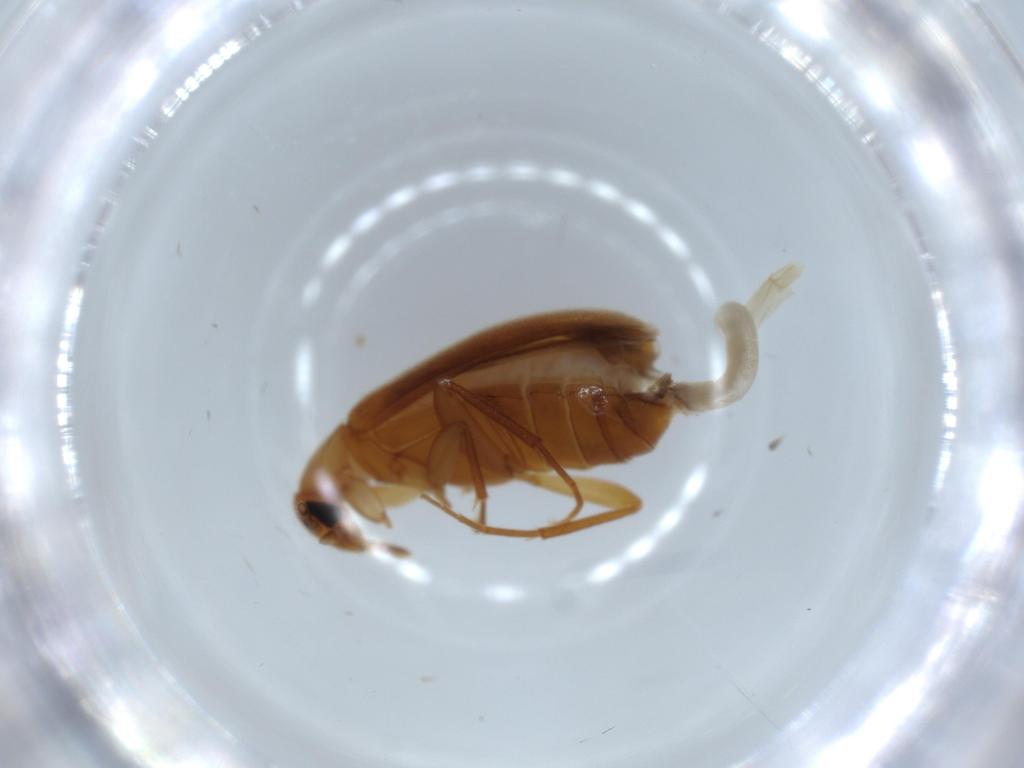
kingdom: Animalia
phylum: Arthropoda
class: Insecta
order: Coleoptera
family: Scraptiidae
